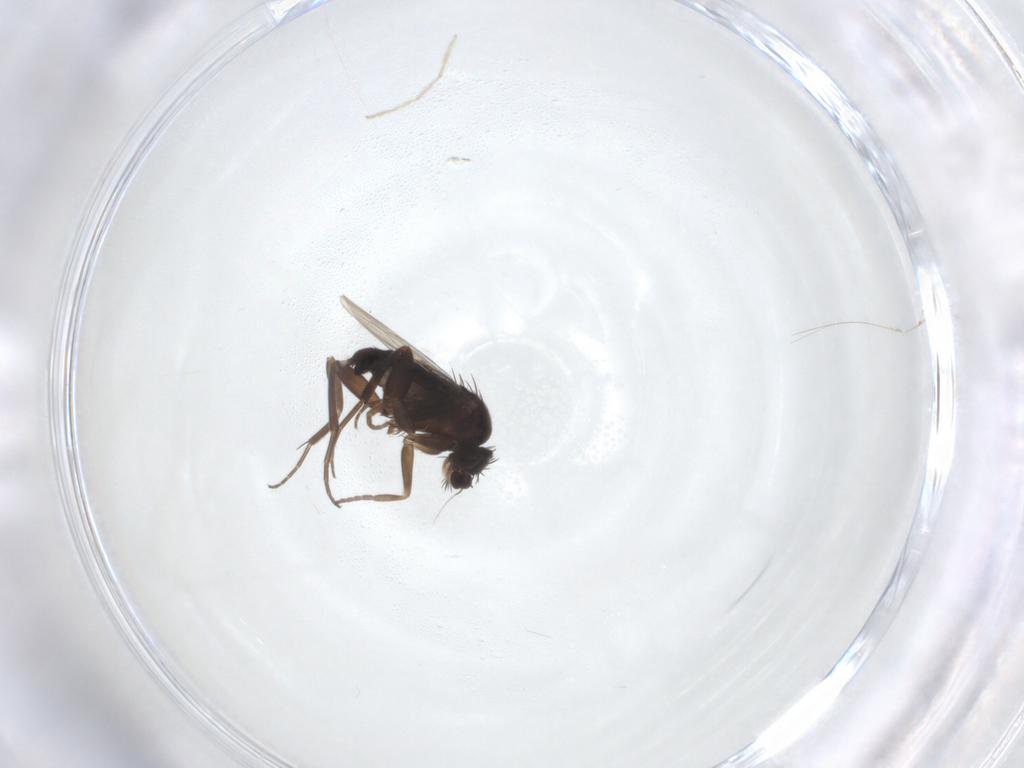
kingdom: Animalia
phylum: Arthropoda
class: Insecta
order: Diptera
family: Chironomidae
